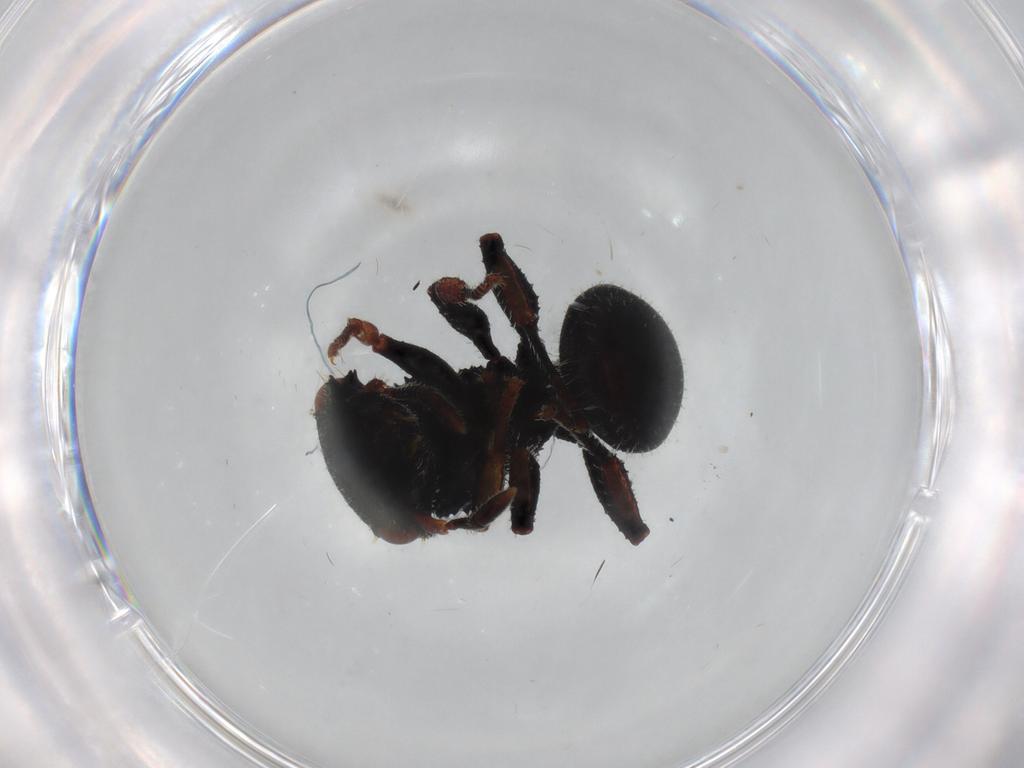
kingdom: Animalia
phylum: Arthropoda
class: Insecta
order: Hymenoptera
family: Formicidae
